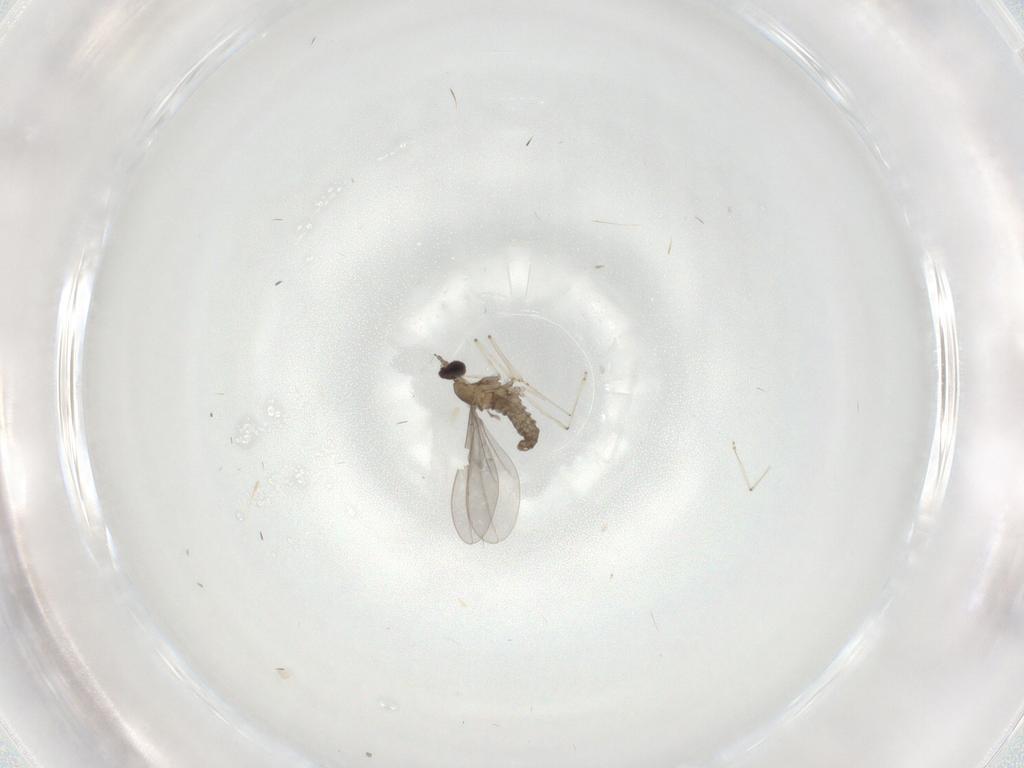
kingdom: Animalia
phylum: Arthropoda
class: Insecta
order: Diptera
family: Cecidomyiidae
